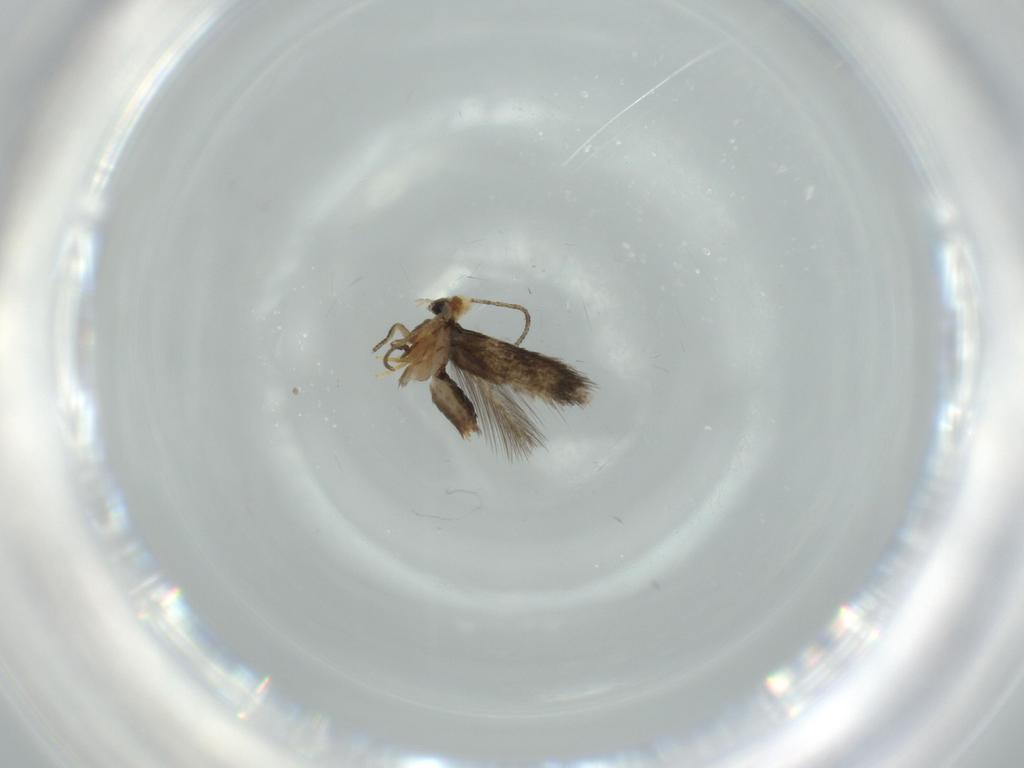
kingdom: Animalia
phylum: Arthropoda
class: Insecta
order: Lepidoptera
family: Nepticulidae
